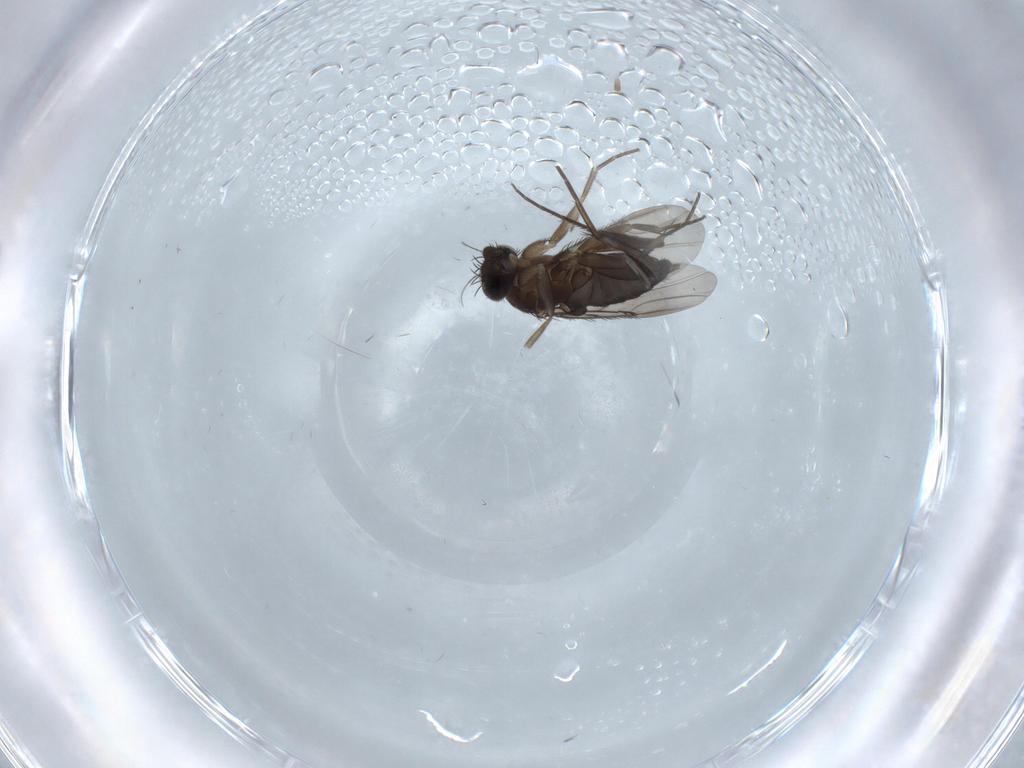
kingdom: Animalia
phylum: Arthropoda
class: Insecta
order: Diptera
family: Phoridae
